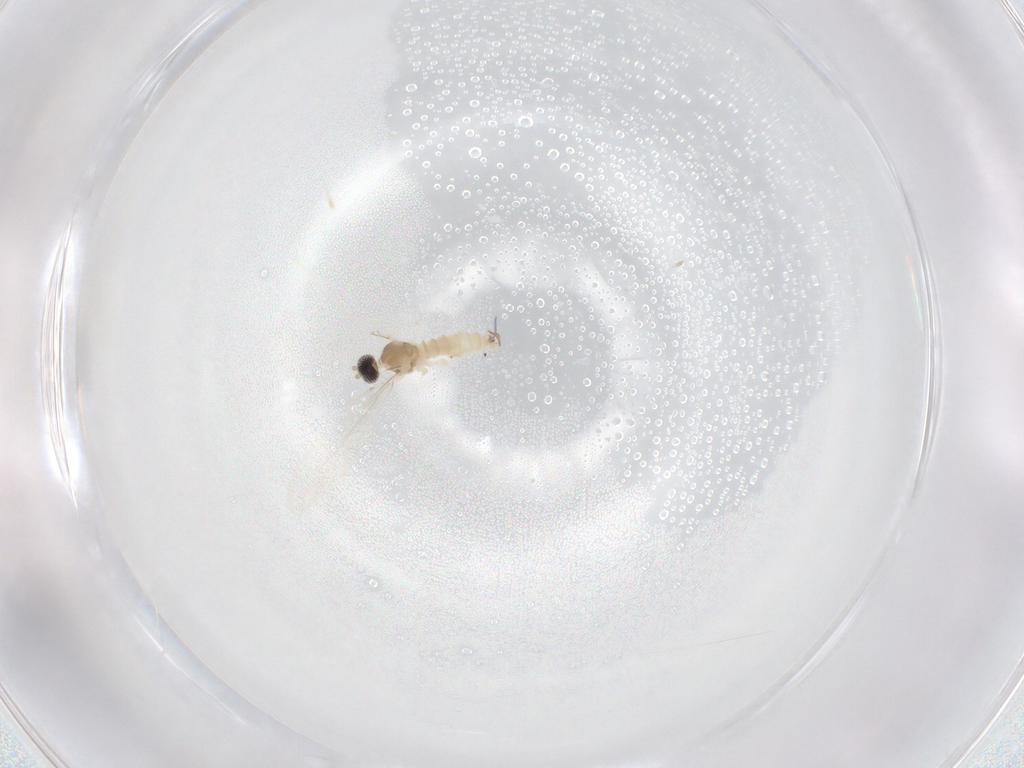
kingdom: Animalia
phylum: Arthropoda
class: Insecta
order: Diptera
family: Cecidomyiidae
